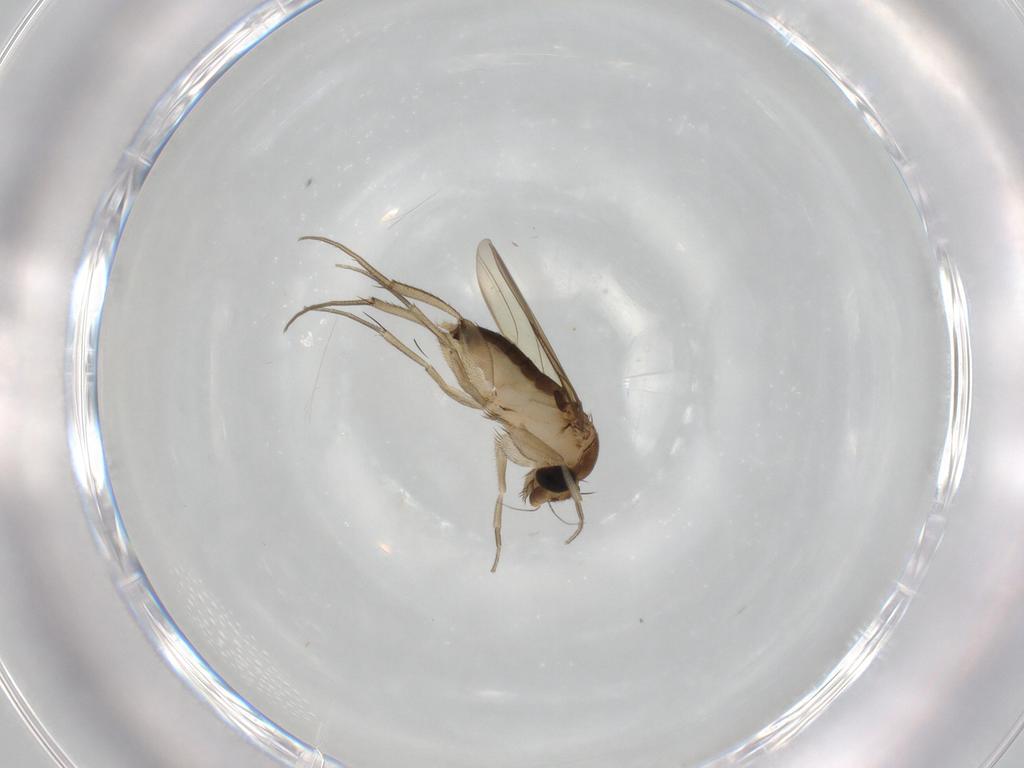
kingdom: Animalia
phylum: Arthropoda
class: Insecta
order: Diptera
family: Phoridae
